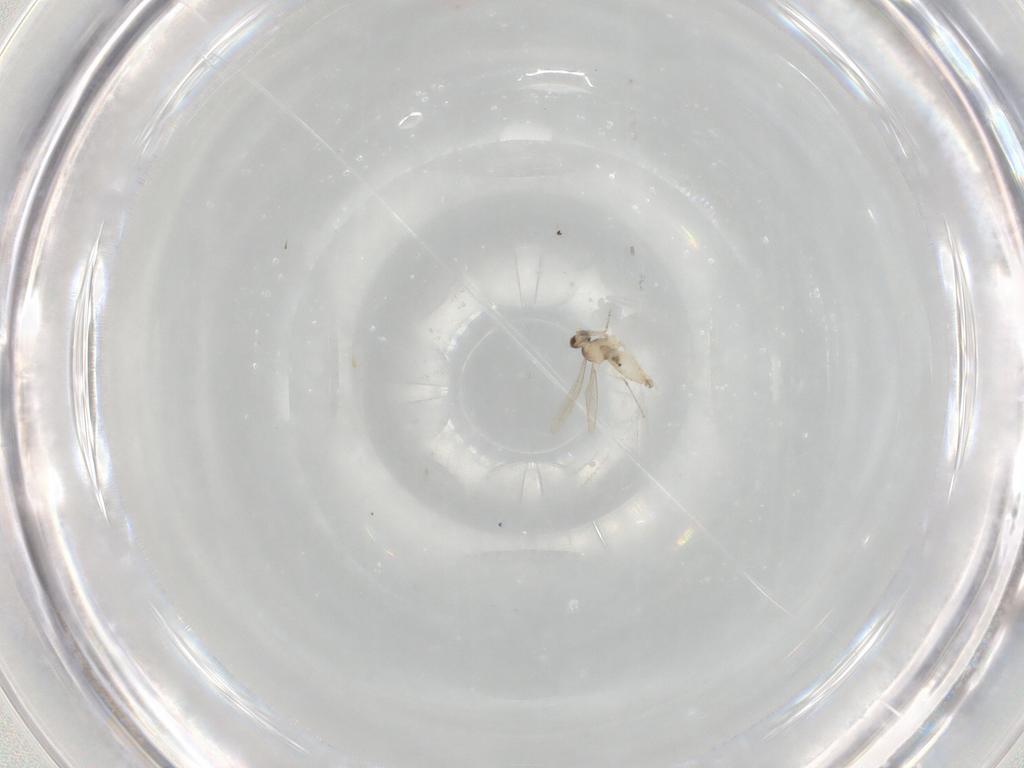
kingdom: Animalia
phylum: Arthropoda
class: Insecta
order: Diptera
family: Cecidomyiidae
